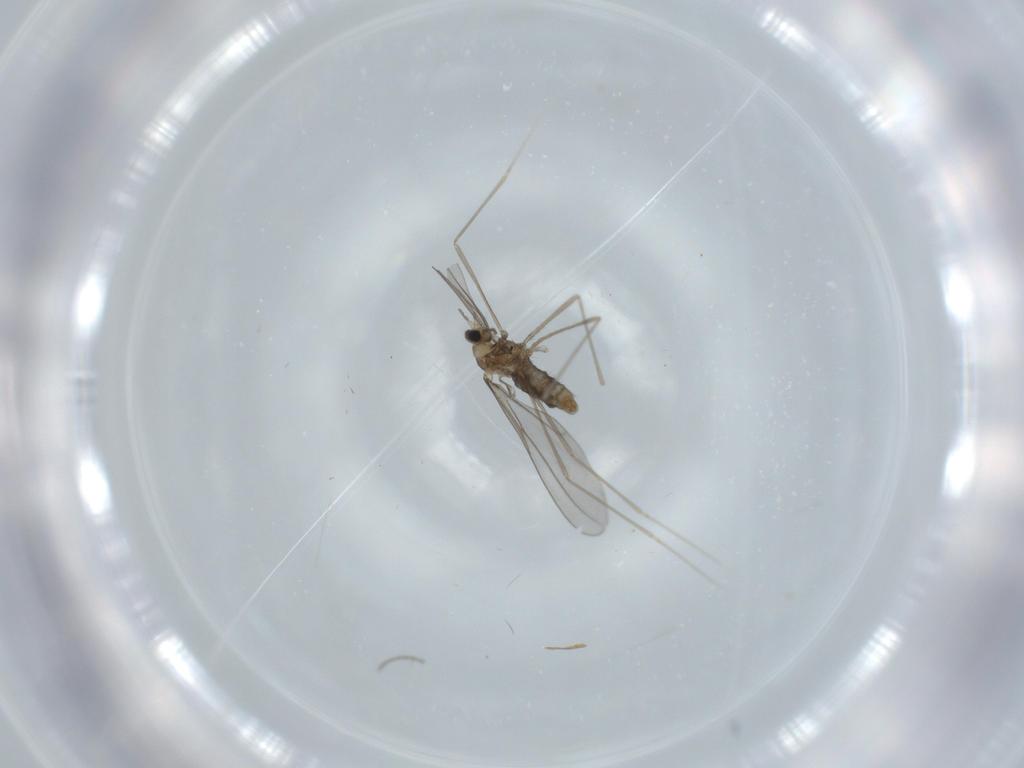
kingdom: Animalia
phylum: Arthropoda
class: Insecta
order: Diptera
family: Cecidomyiidae
